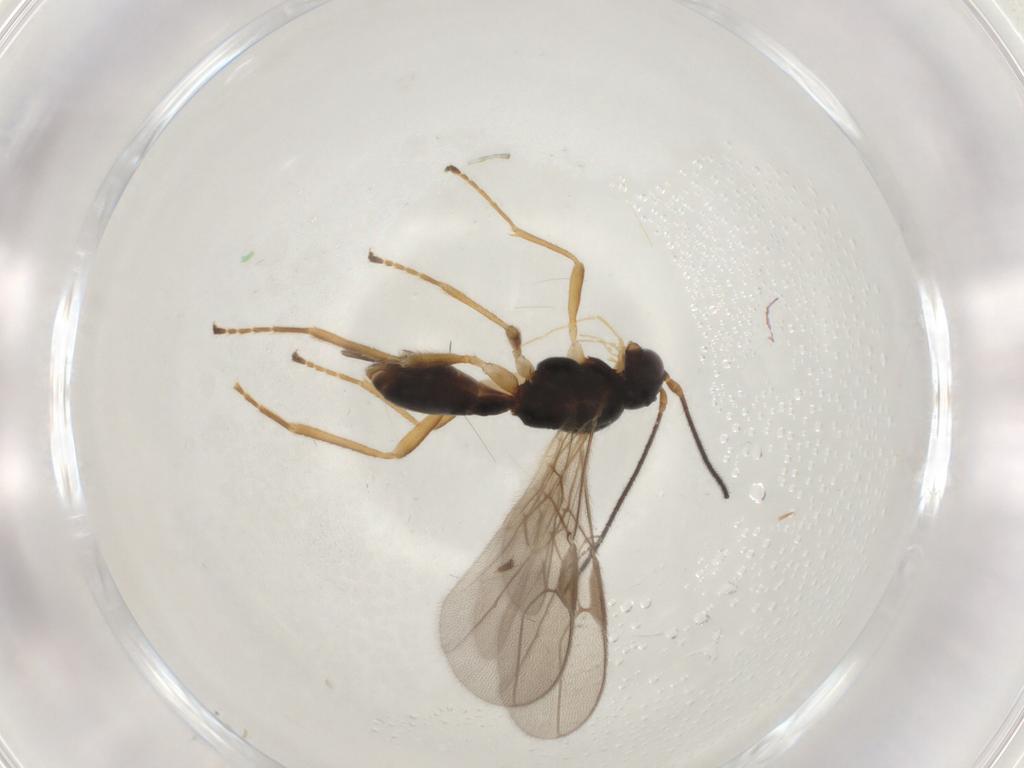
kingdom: Animalia
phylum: Arthropoda
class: Insecta
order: Hymenoptera
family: Braconidae
